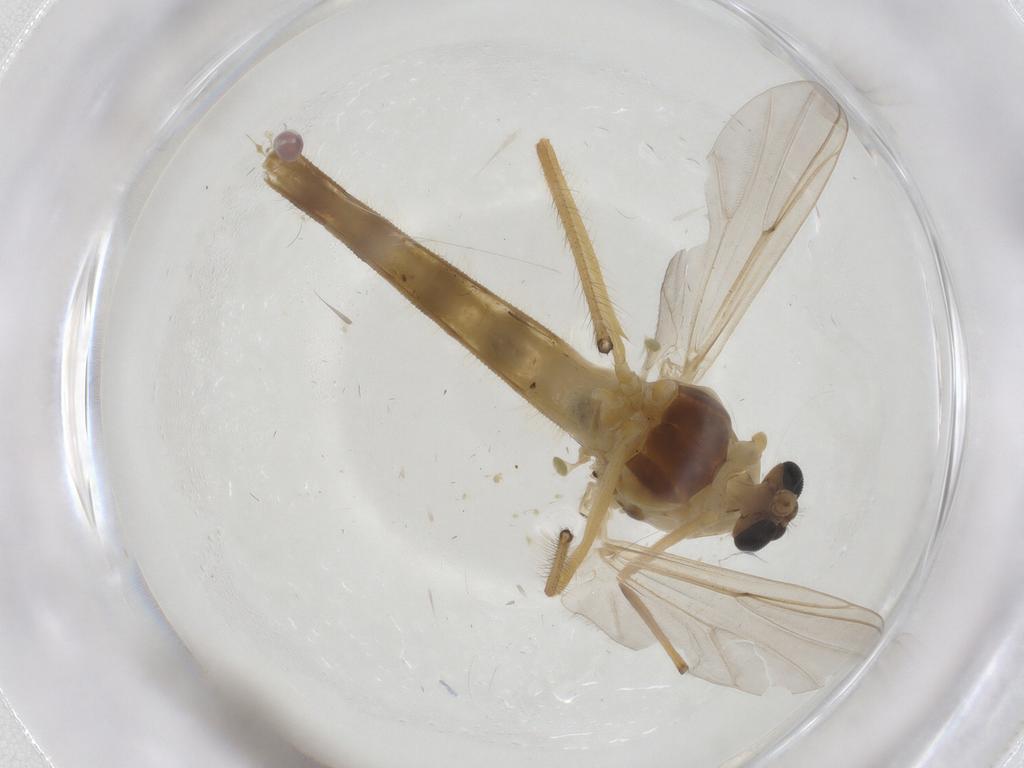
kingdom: Animalia
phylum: Arthropoda
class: Insecta
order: Diptera
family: Chironomidae
